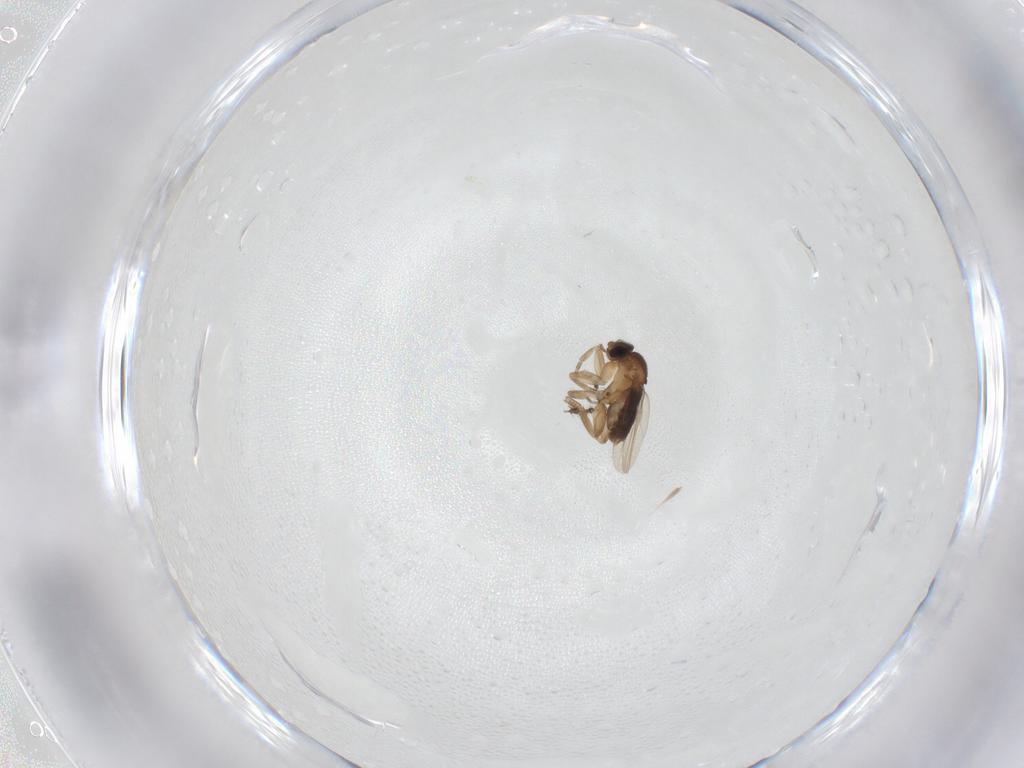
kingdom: Animalia
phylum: Arthropoda
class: Insecta
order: Diptera
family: Phoridae
